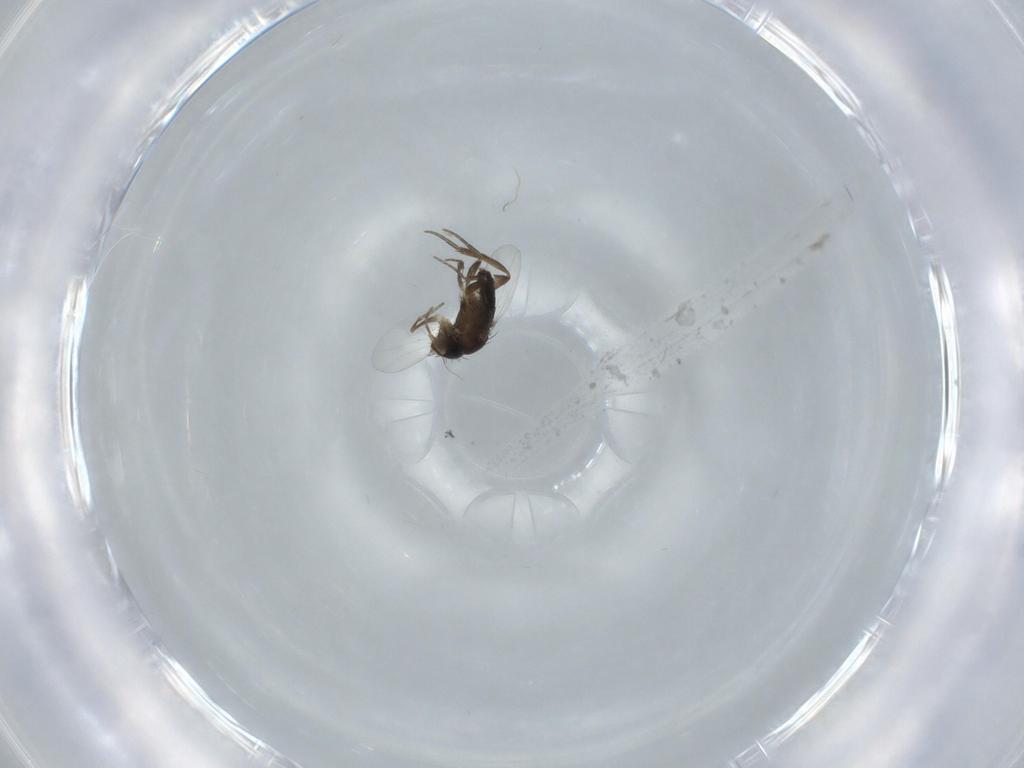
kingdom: Animalia
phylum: Arthropoda
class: Insecta
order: Diptera
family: Phoridae
